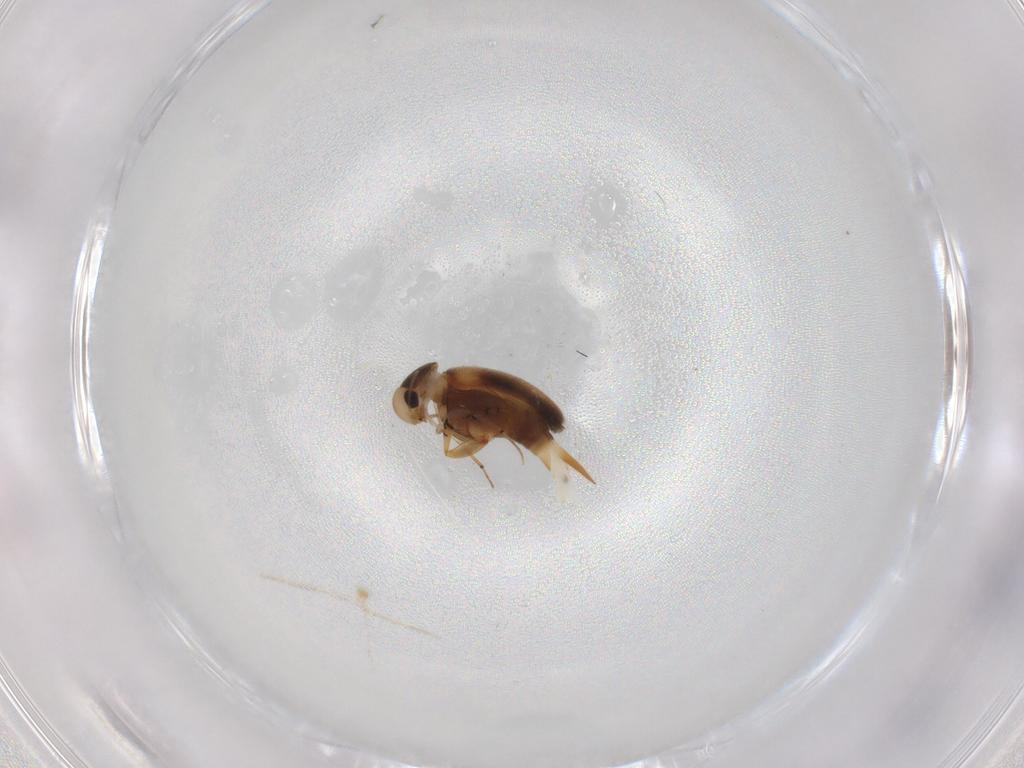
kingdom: Animalia
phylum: Arthropoda
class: Insecta
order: Coleoptera
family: Mordellidae
